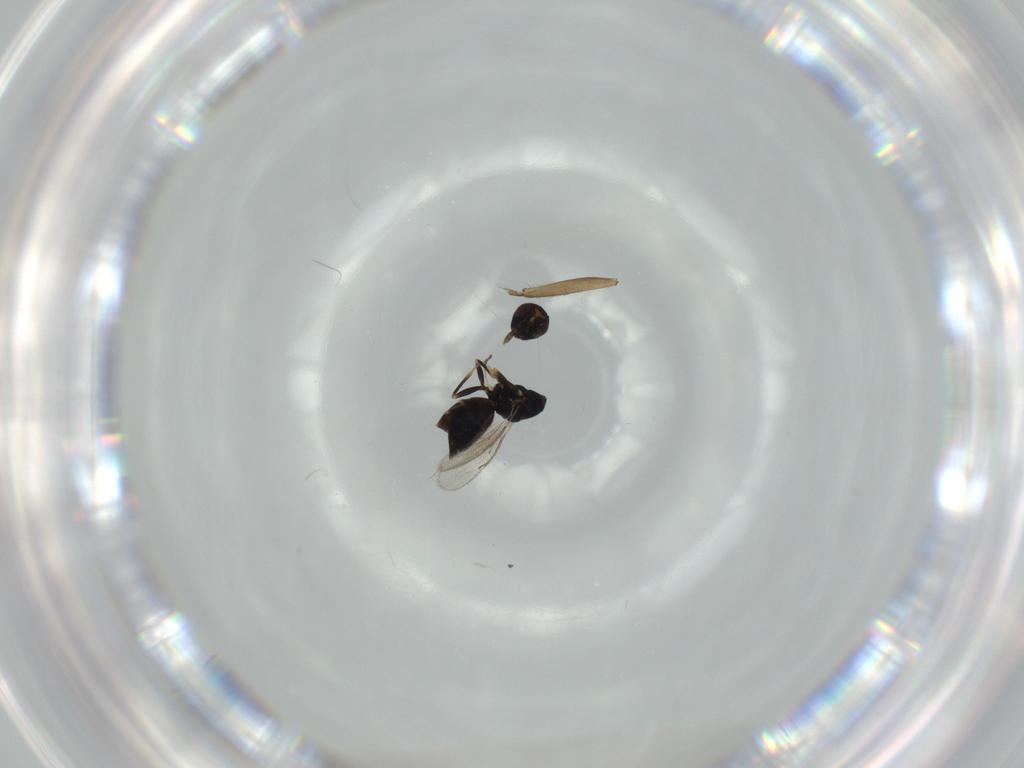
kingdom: Animalia
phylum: Arthropoda
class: Insecta
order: Hymenoptera
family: Eulophidae
